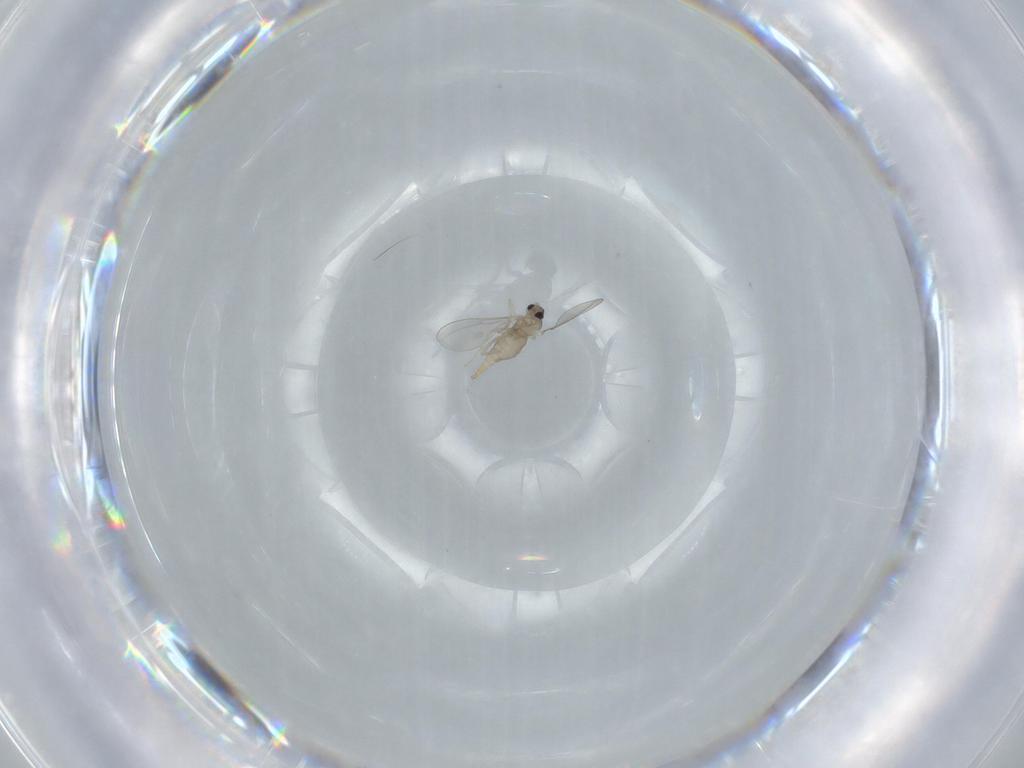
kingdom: Animalia
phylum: Arthropoda
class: Insecta
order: Diptera
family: Cecidomyiidae
